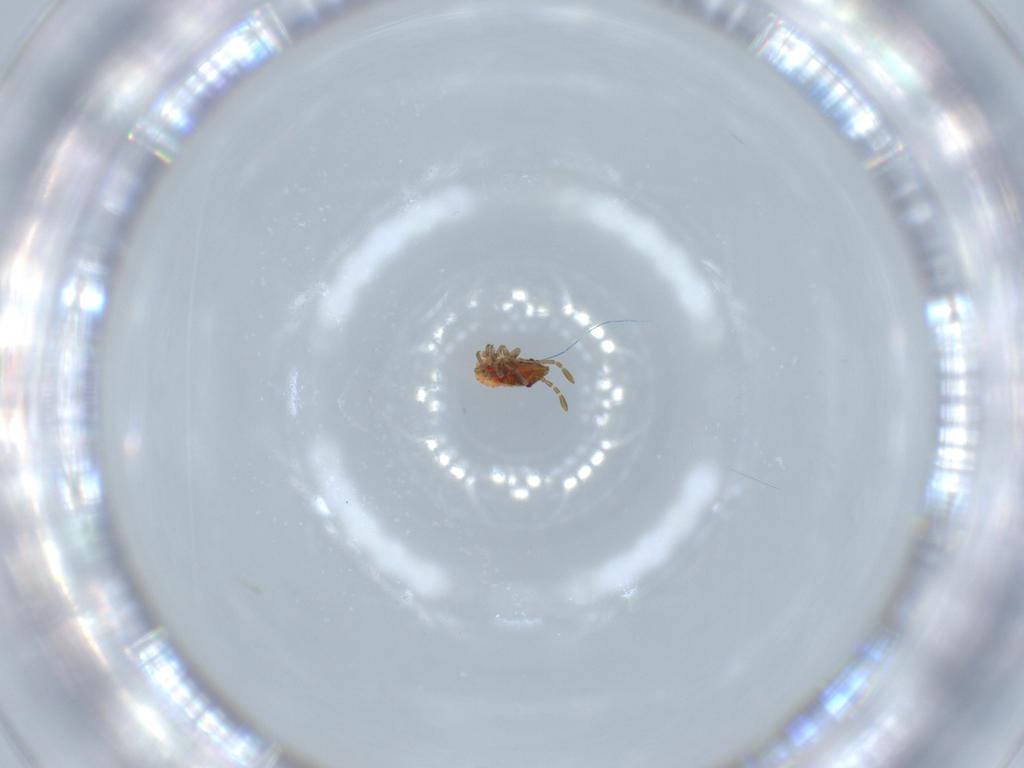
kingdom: Animalia
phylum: Arthropoda
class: Insecta
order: Hemiptera
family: Lygaeidae
